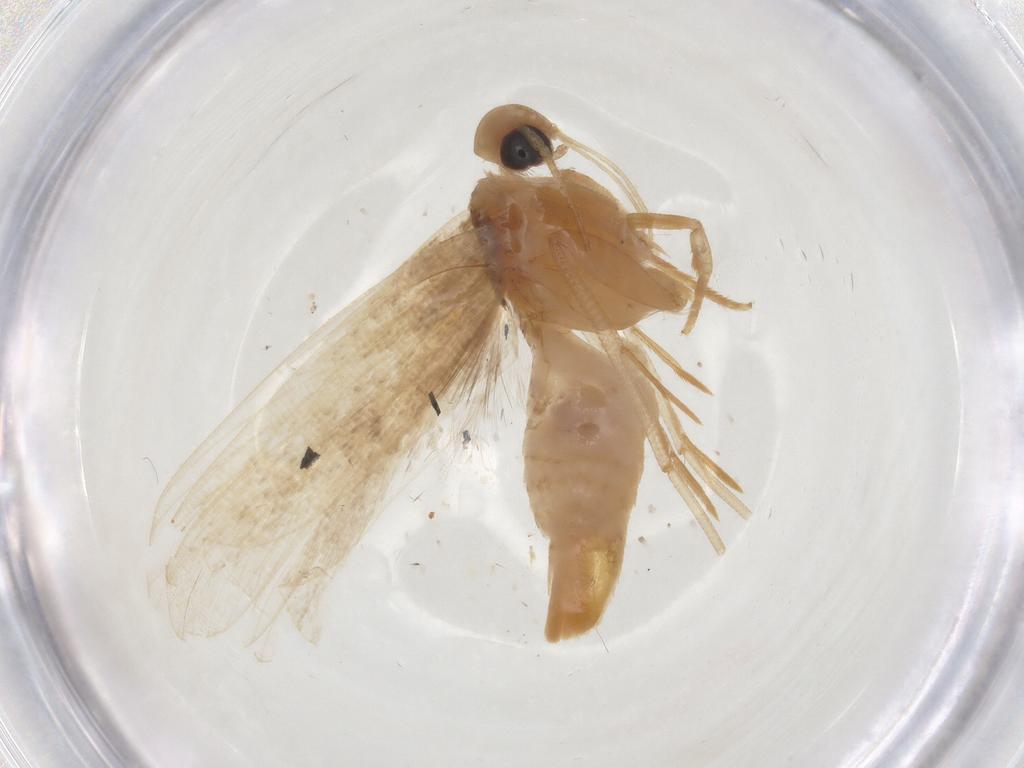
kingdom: Animalia
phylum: Arthropoda
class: Insecta
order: Lepidoptera
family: Gelechiidae
